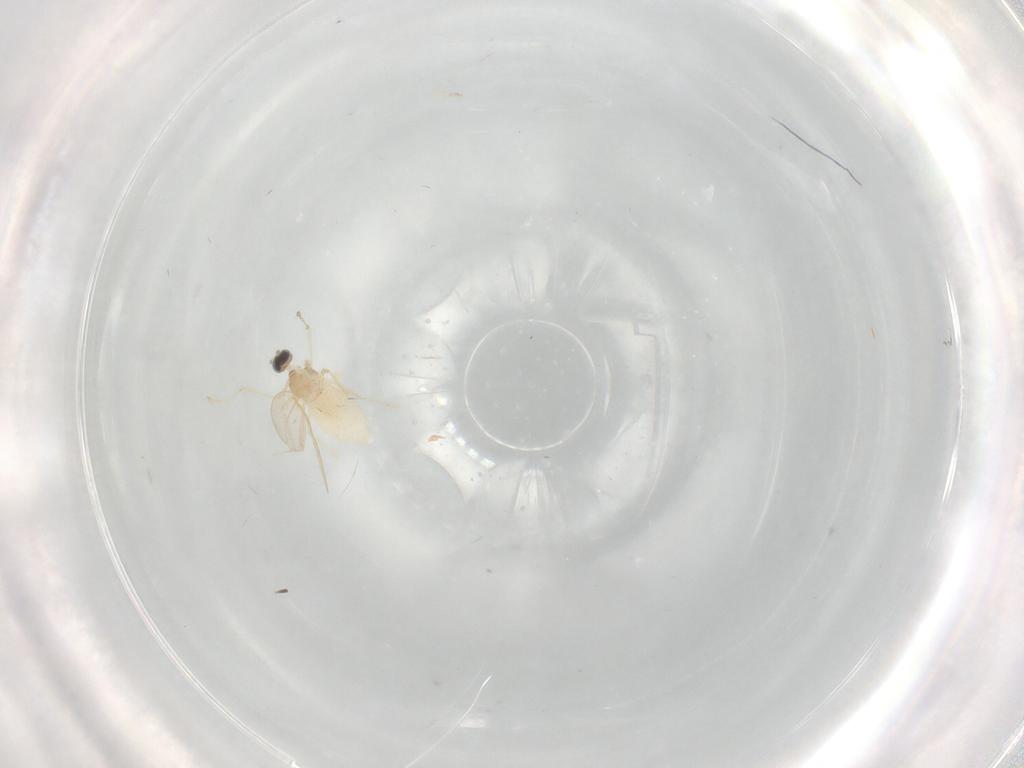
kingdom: Animalia
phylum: Arthropoda
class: Insecta
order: Diptera
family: Cecidomyiidae
